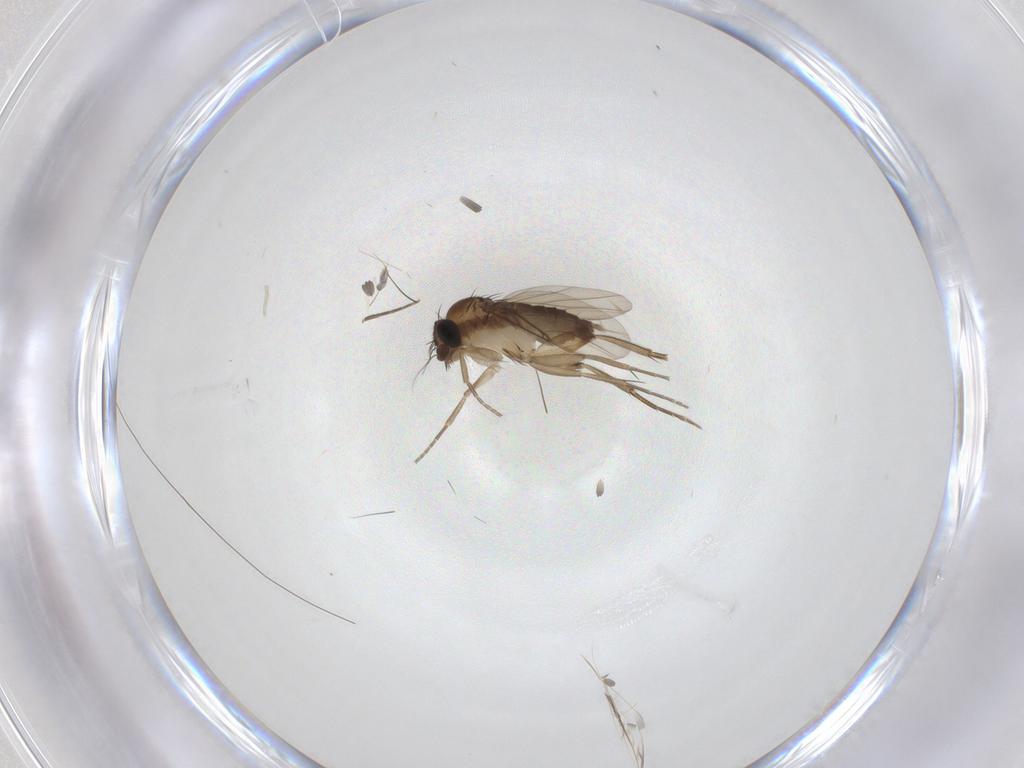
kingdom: Animalia
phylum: Arthropoda
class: Insecta
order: Diptera
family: Phoridae
